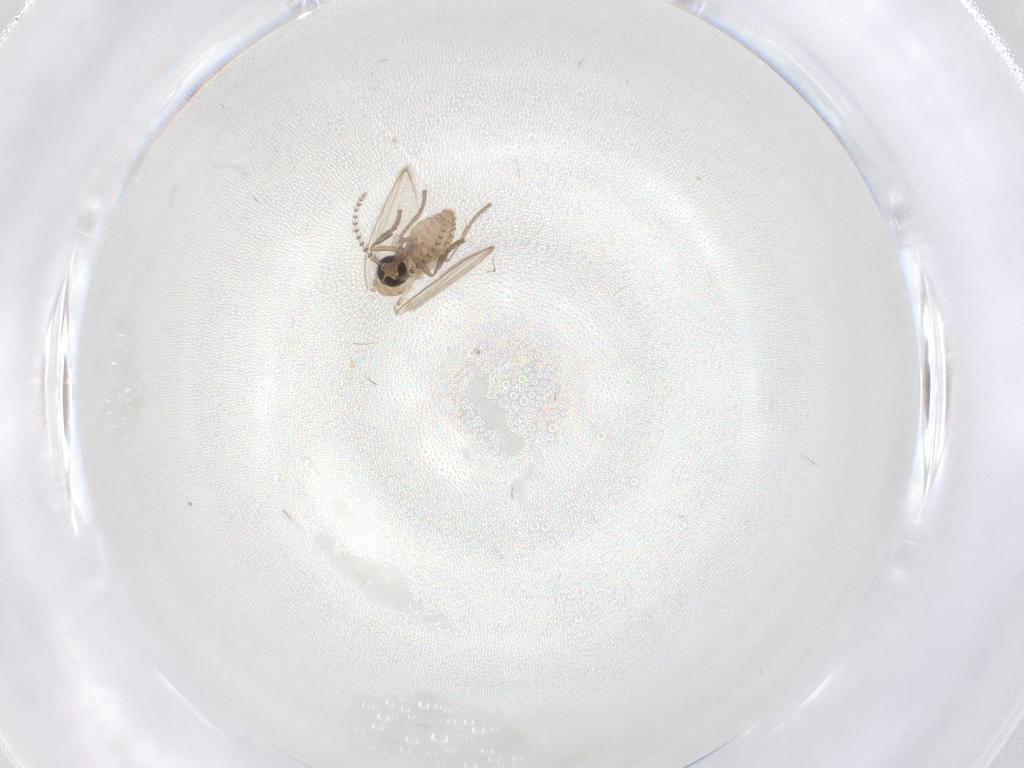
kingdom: Animalia
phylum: Arthropoda
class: Insecta
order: Diptera
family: Psychodidae
